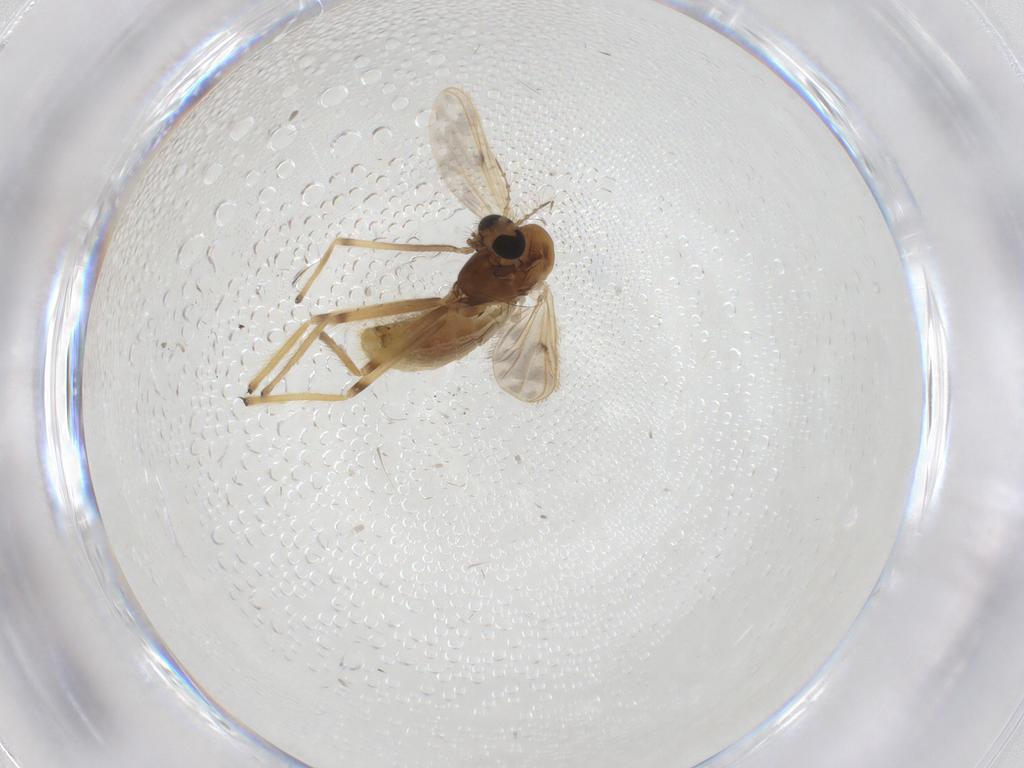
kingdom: Animalia
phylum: Arthropoda
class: Insecta
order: Diptera
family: Chironomidae
